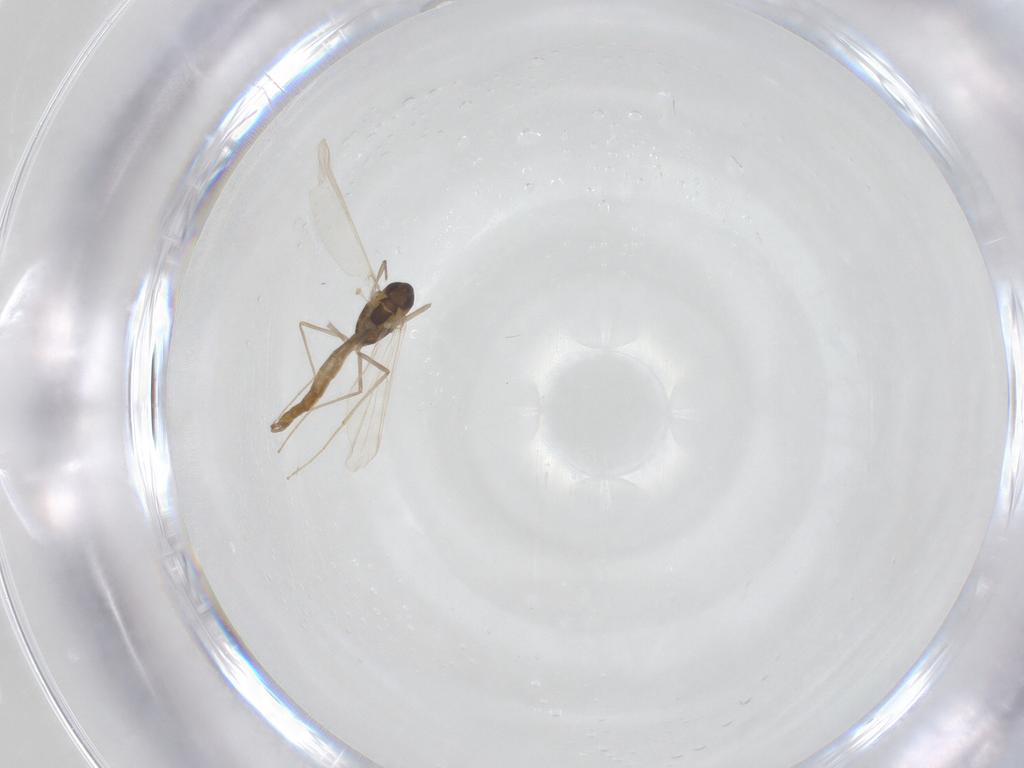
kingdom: Animalia
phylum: Arthropoda
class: Insecta
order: Diptera
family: Chironomidae
